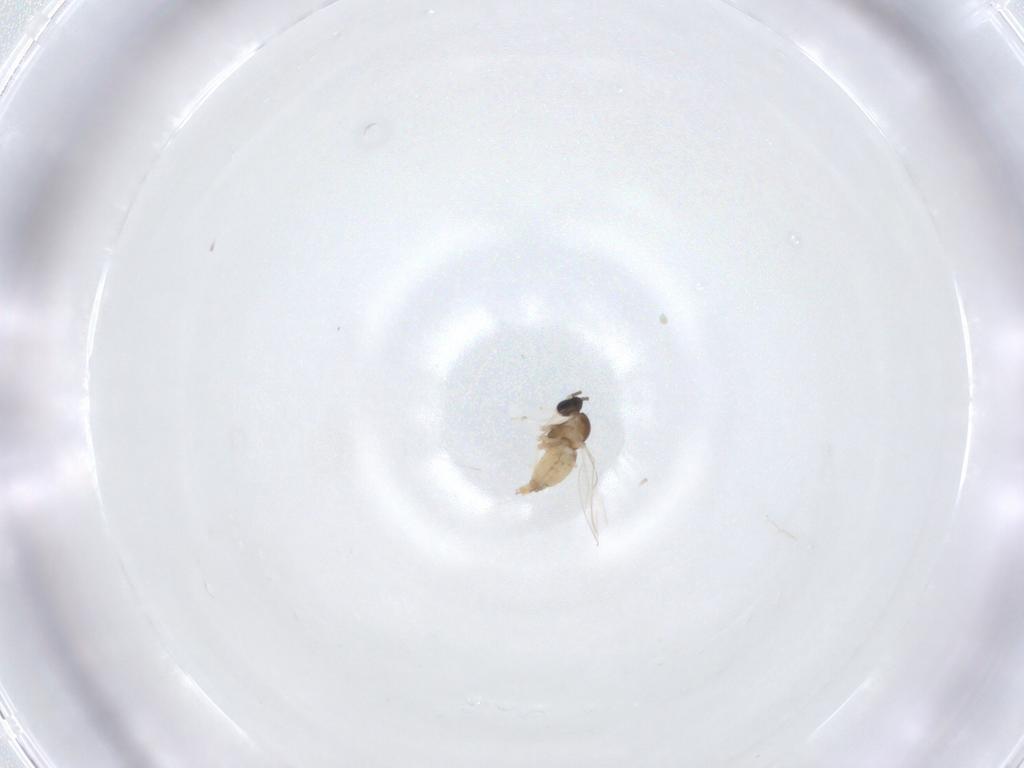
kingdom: Animalia
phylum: Arthropoda
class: Insecta
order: Diptera
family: Cecidomyiidae
